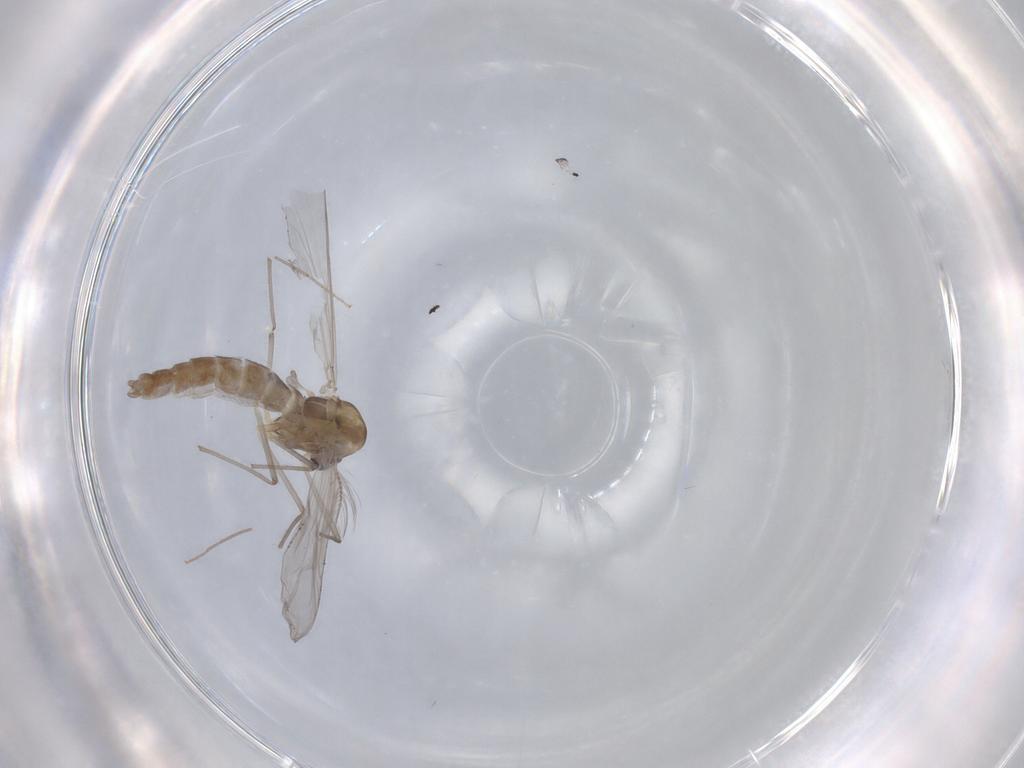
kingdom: Animalia
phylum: Arthropoda
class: Insecta
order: Diptera
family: Chironomidae
